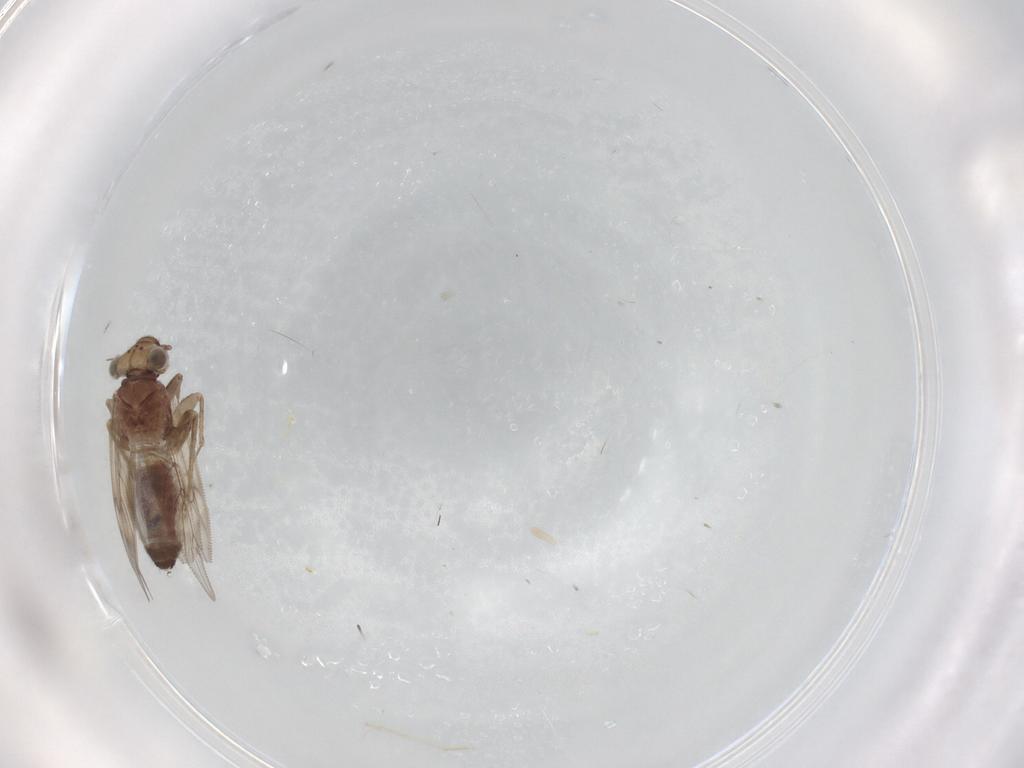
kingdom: Animalia
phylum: Arthropoda
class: Insecta
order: Psocodea
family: Lepidopsocidae
